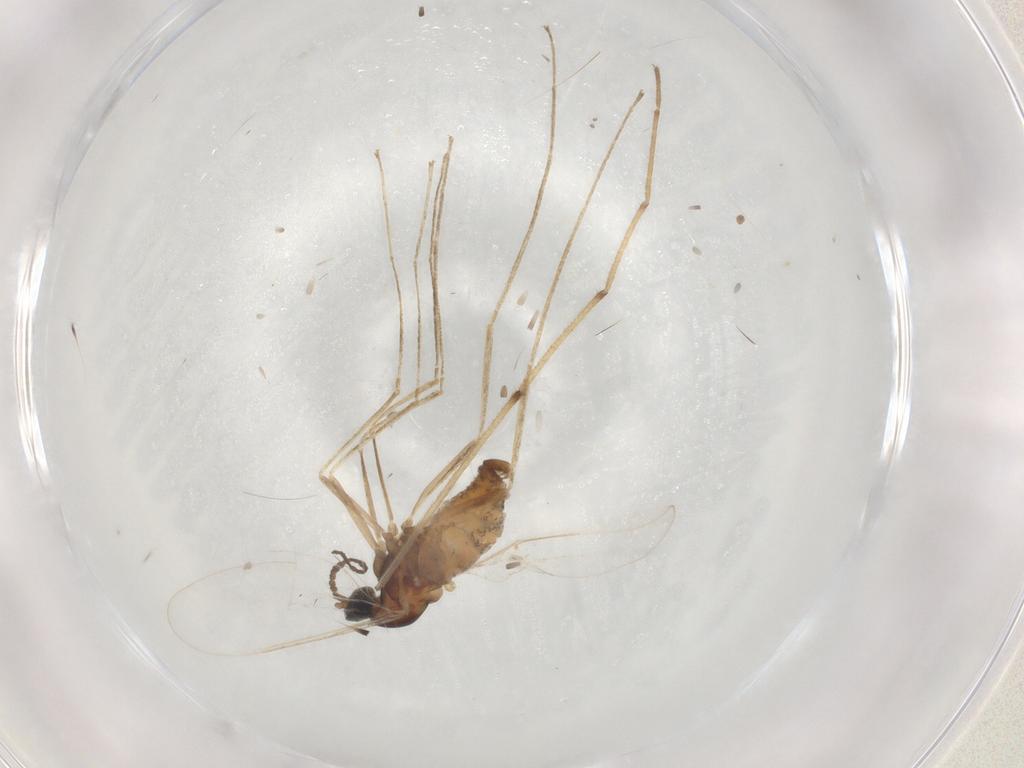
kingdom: Animalia
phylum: Arthropoda
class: Insecta
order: Diptera
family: Cecidomyiidae
